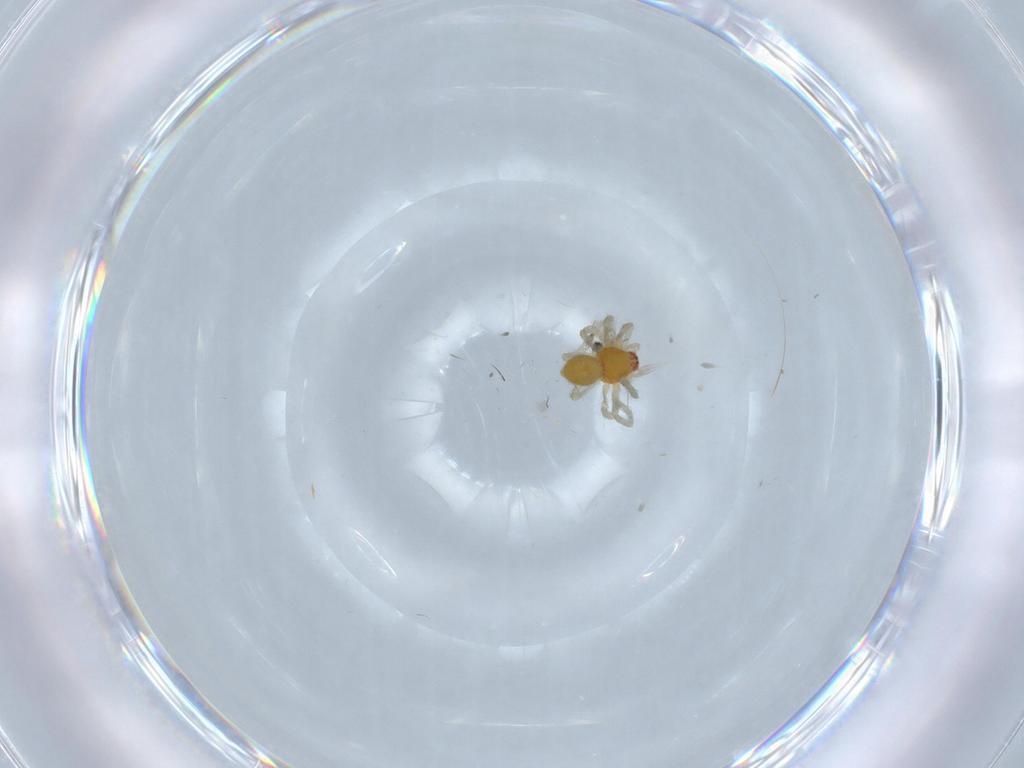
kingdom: Animalia
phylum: Arthropoda
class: Arachnida
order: Araneae
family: Dictynidae
